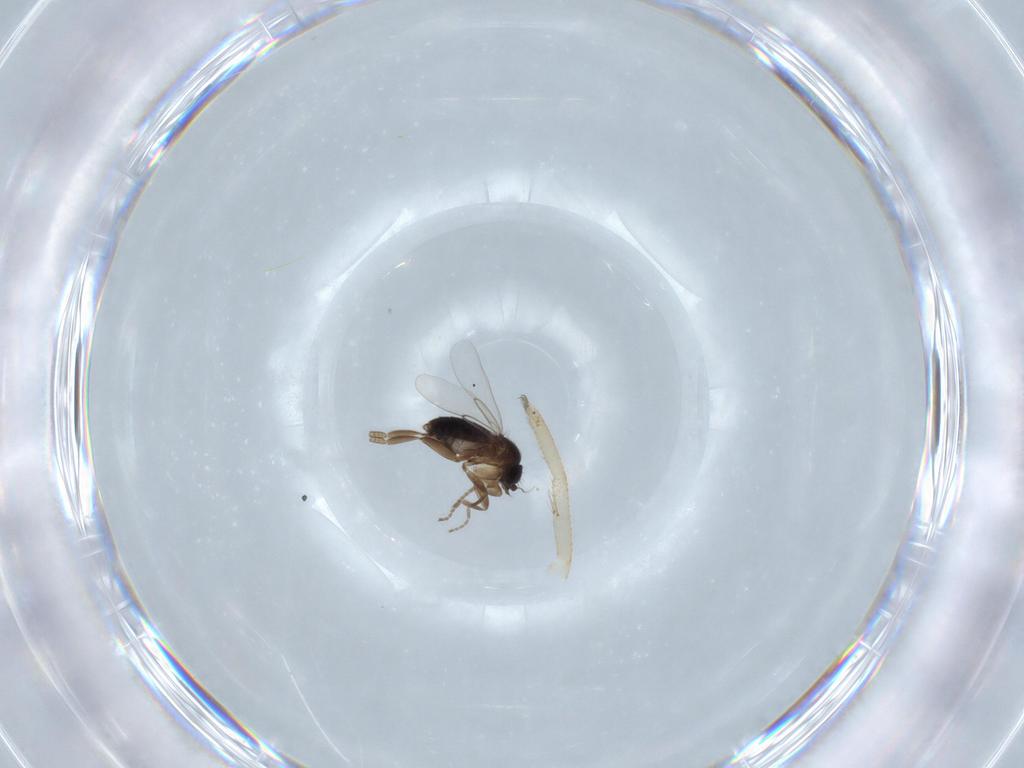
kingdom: Animalia
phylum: Arthropoda
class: Insecta
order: Diptera
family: Phoridae
